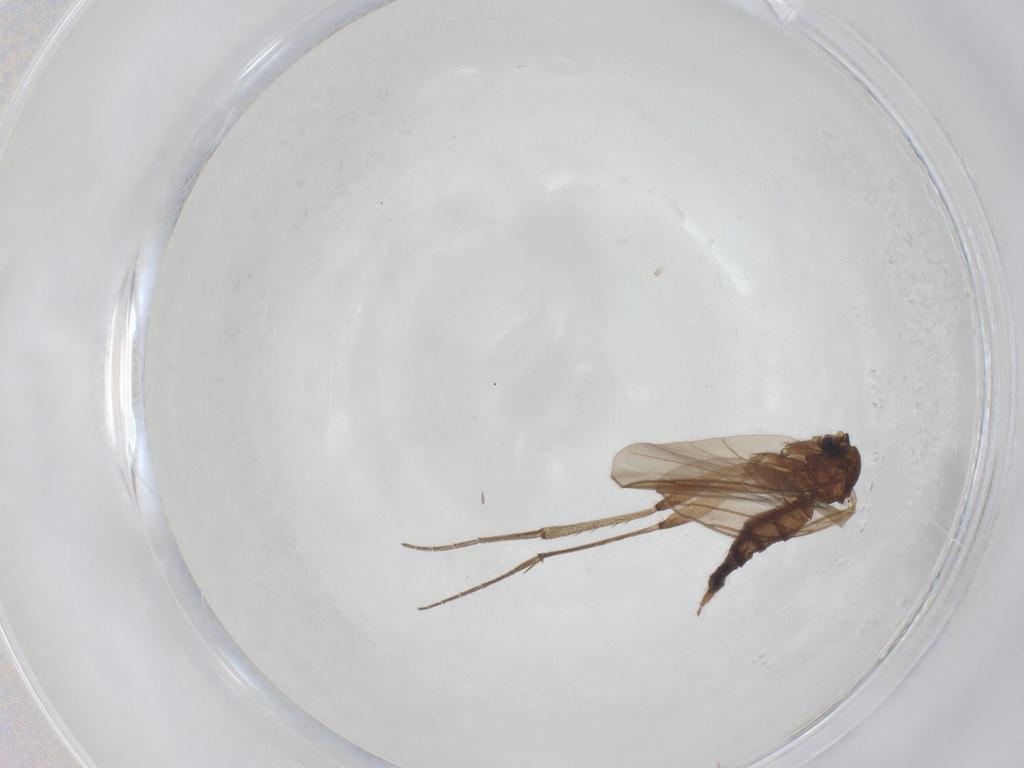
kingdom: Animalia
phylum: Arthropoda
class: Insecta
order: Diptera
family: Mycetophilidae
